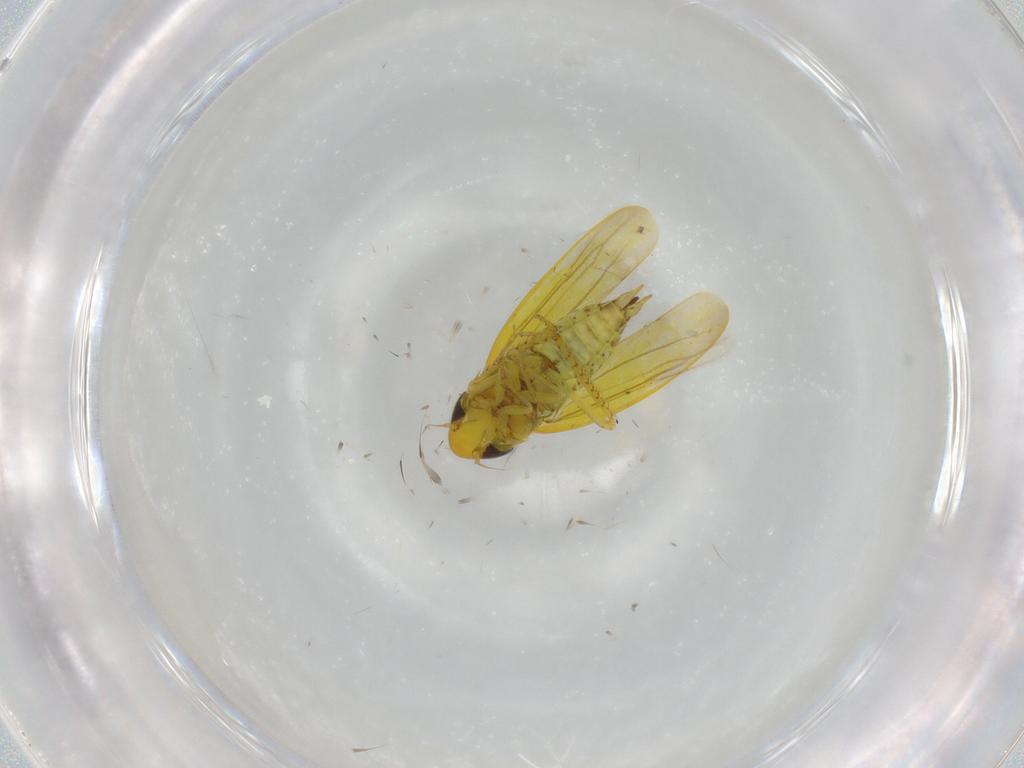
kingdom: Animalia
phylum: Arthropoda
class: Insecta
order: Hemiptera
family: Cicadellidae
